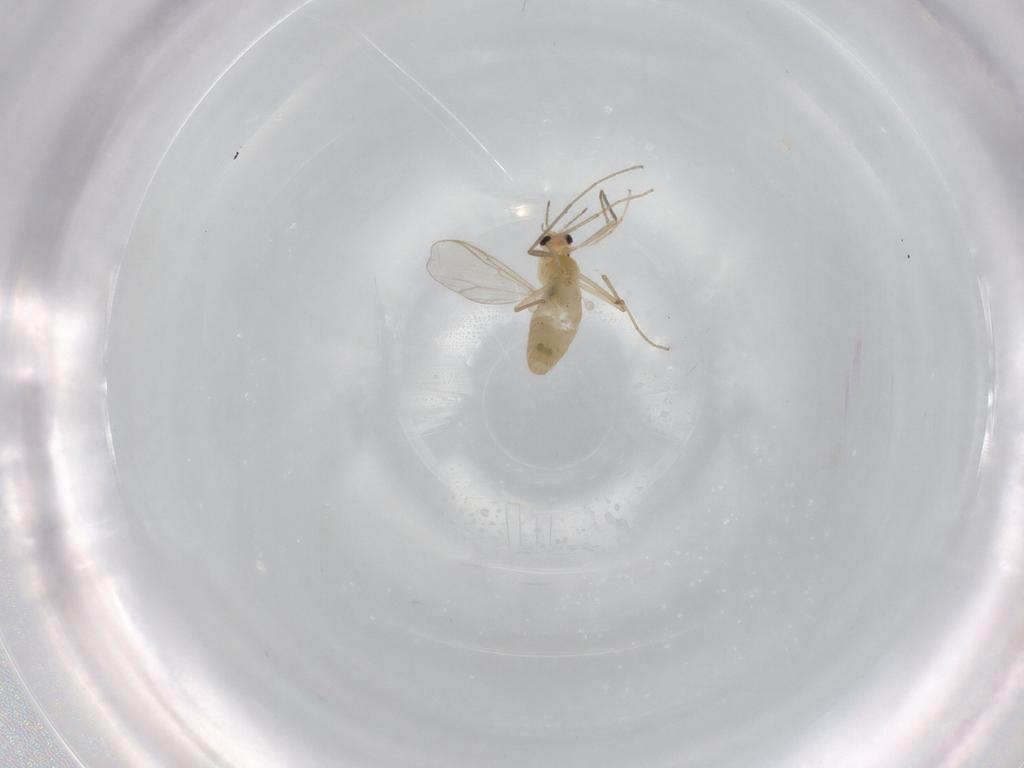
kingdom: Animalia
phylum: Arthropoda
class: Insecta
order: Diptera
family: Chironomidae
